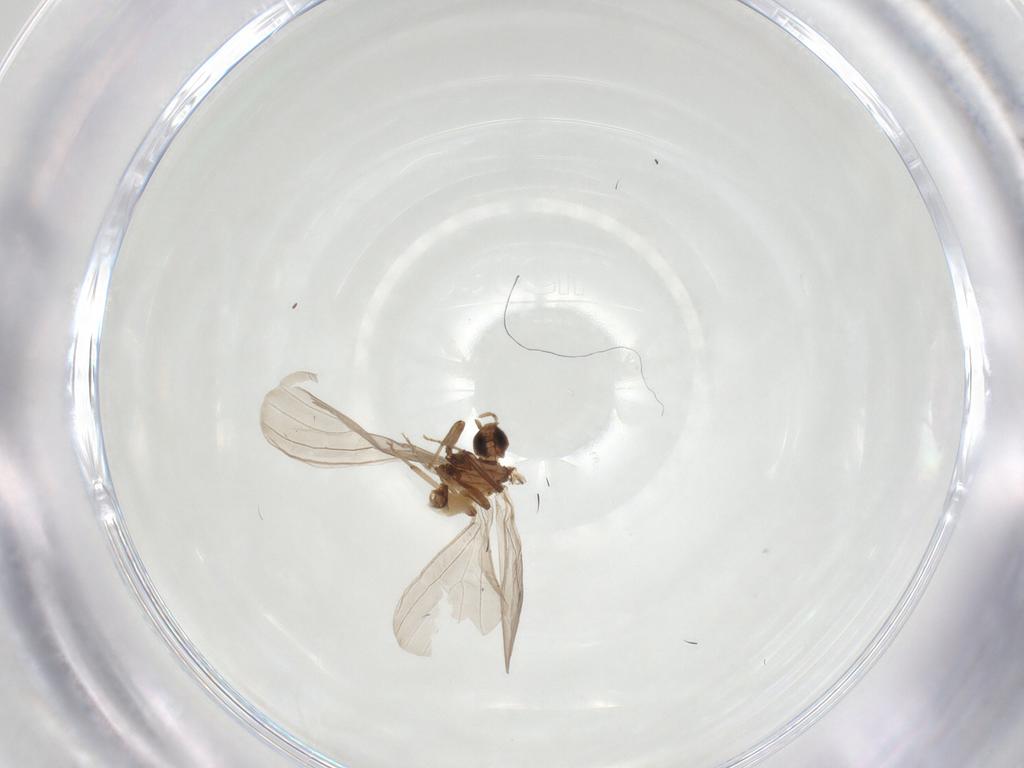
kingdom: Animalia
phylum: Arthropoda
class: Insecta
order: Neuroptera
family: Coniopterygidae
